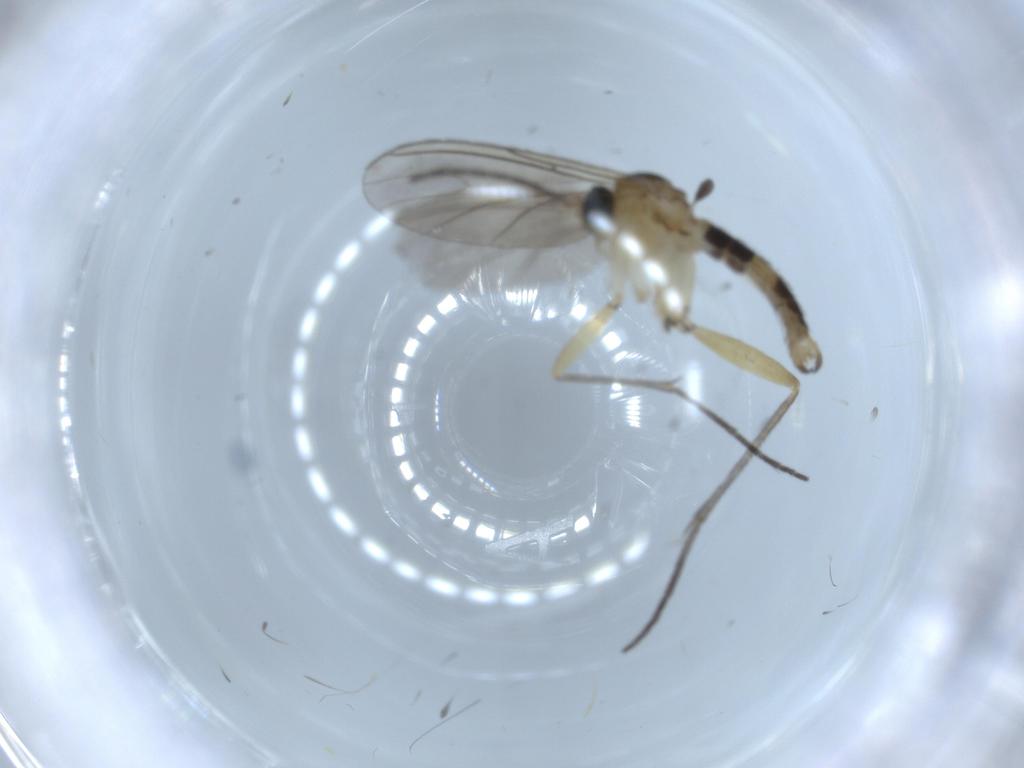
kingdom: Animalia
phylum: Arthropoda
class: Insecta
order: Diptera
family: Sciaridae
